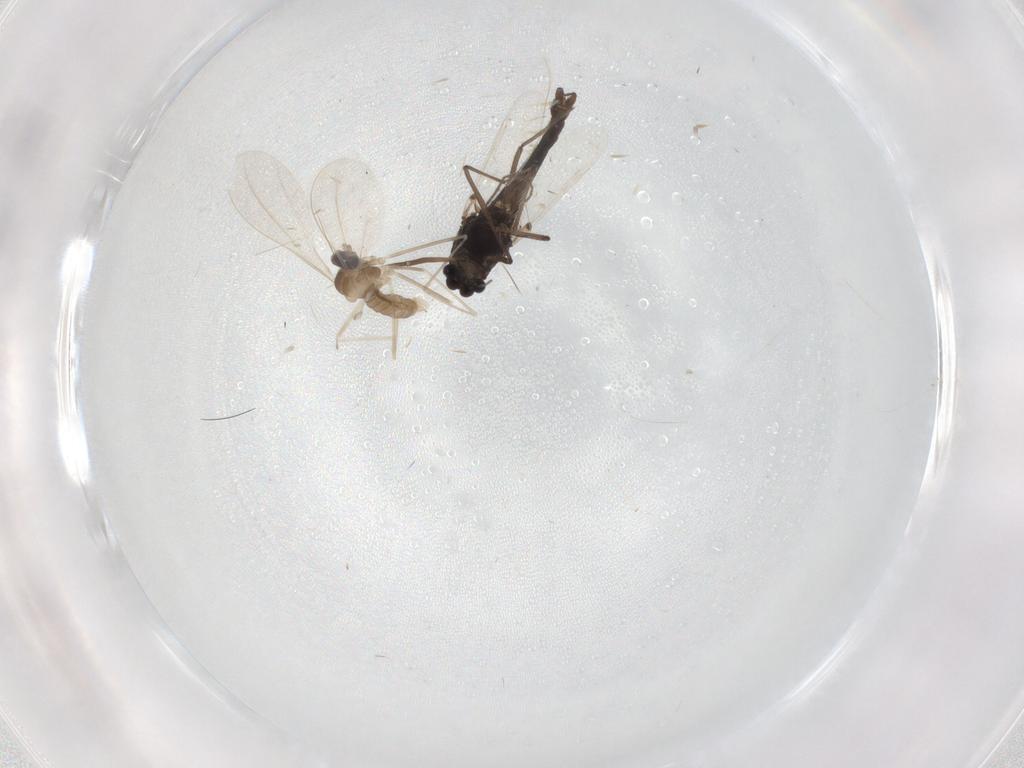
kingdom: Animalia
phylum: Arthropoda
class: Insecta
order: Diptera
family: Chironomidae
